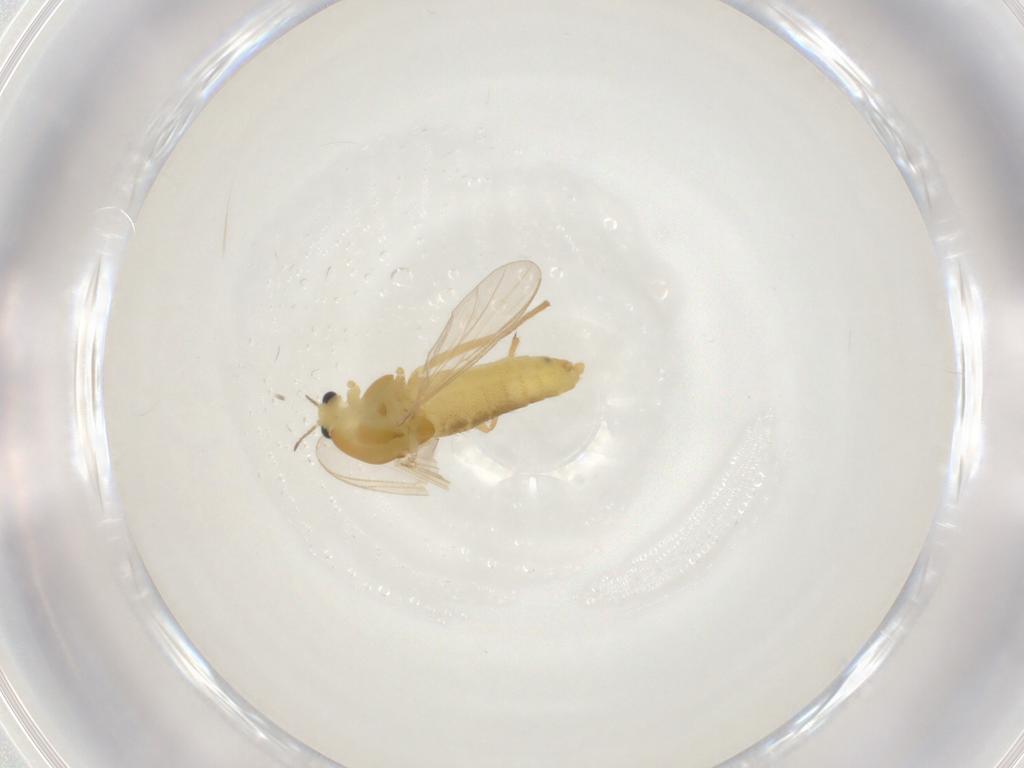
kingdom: Animalia
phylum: Arthropoda
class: Insecta
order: Diptera
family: Chironomidae
